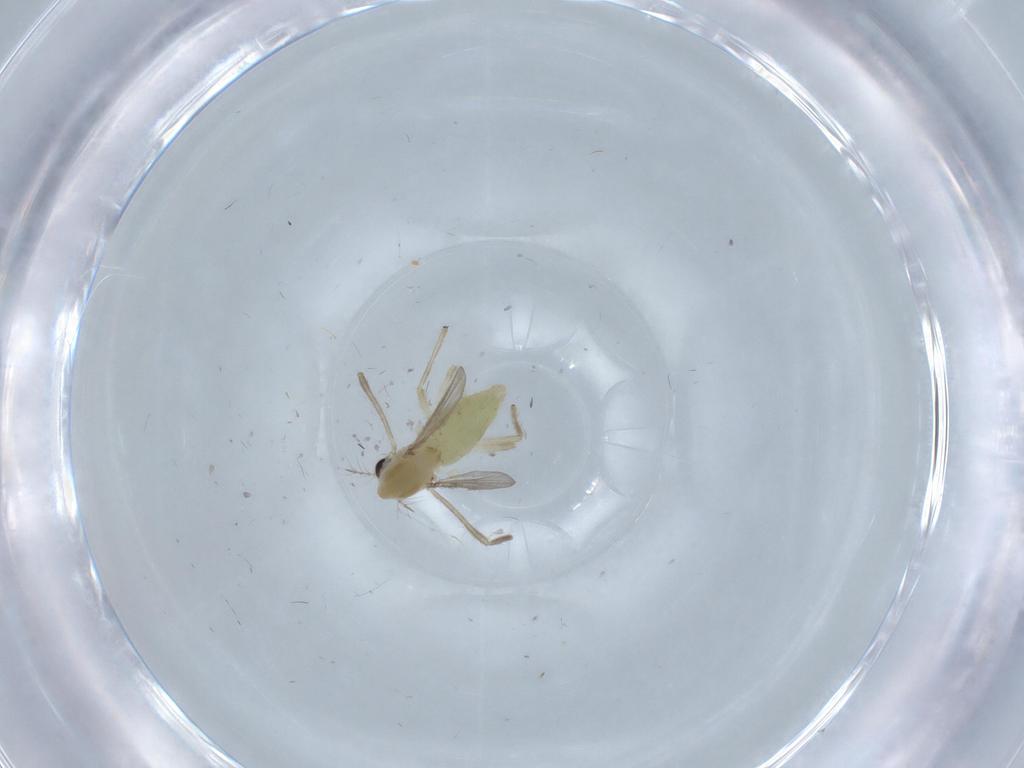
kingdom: Animalia
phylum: Arthropoda
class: Insecta
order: Diptera
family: Chironomidae
